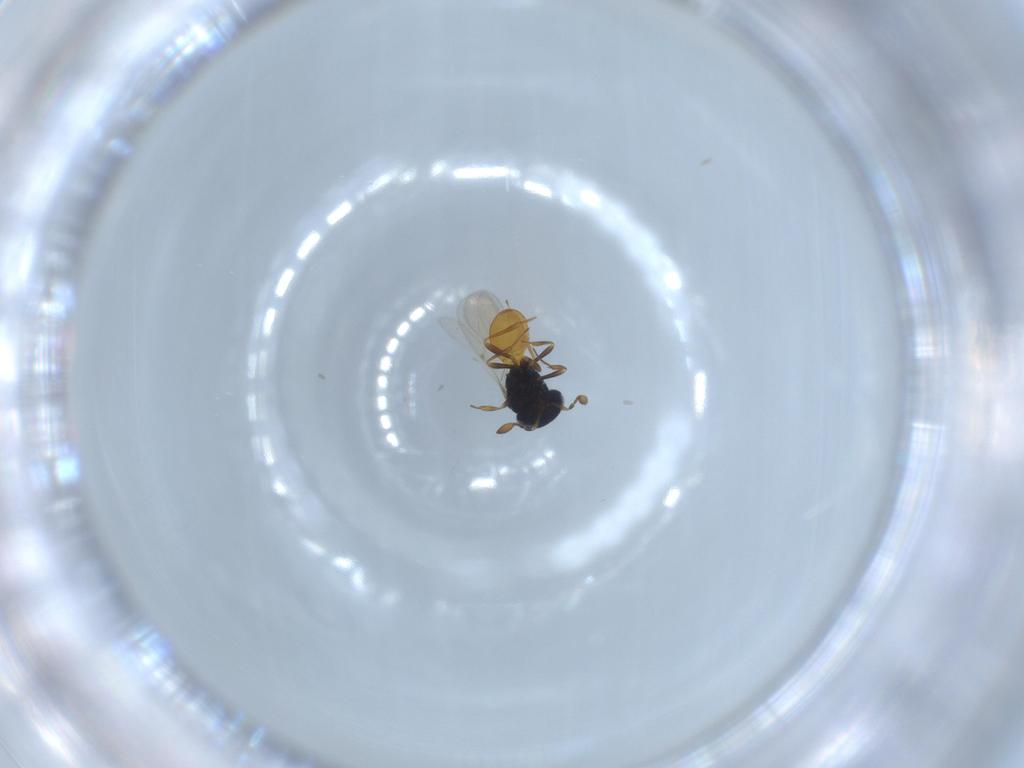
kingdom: Animalia
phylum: Arthropoda
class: Insecta
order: Hymenoptera
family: Scelionidae
